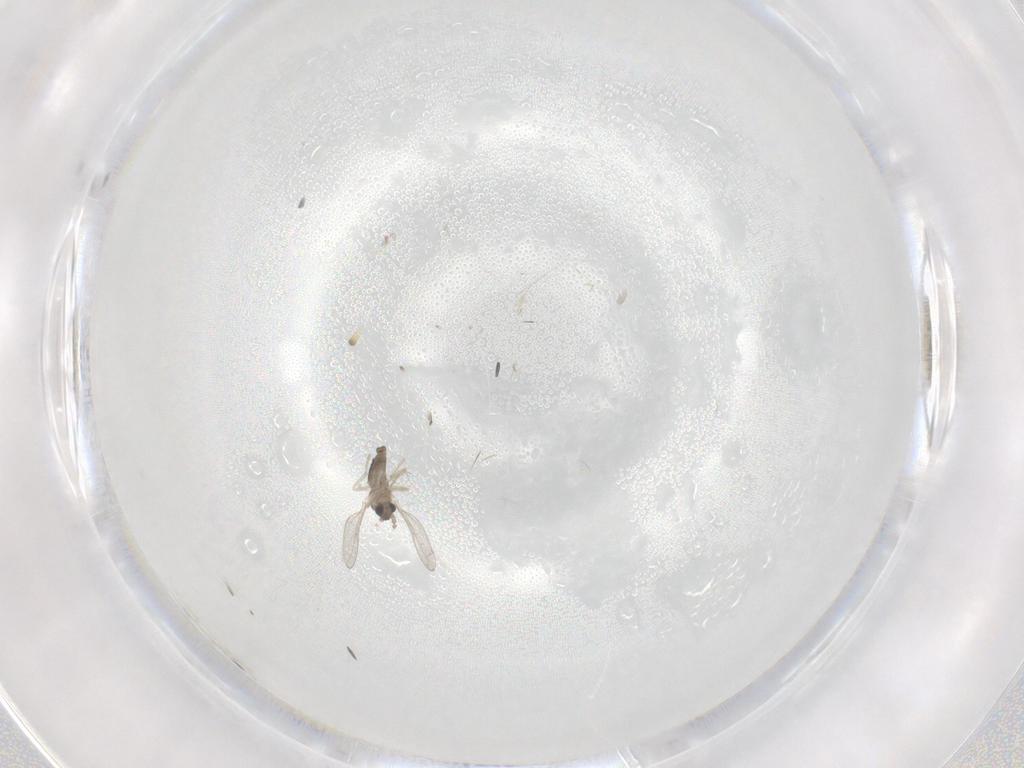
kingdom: Animalia
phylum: Arthropoda
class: Insecta
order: Diptera
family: Cecidomyiidae
